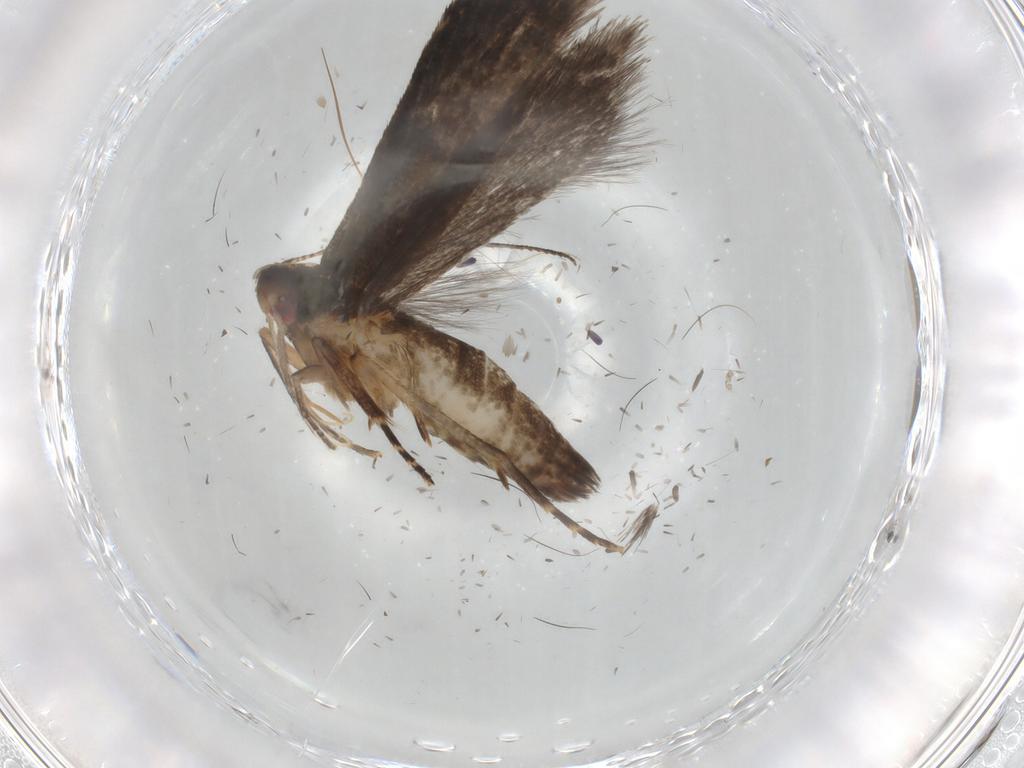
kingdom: Animalia
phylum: Arthropoda
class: Insecta
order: Lepidoptera
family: Gelechiidae
